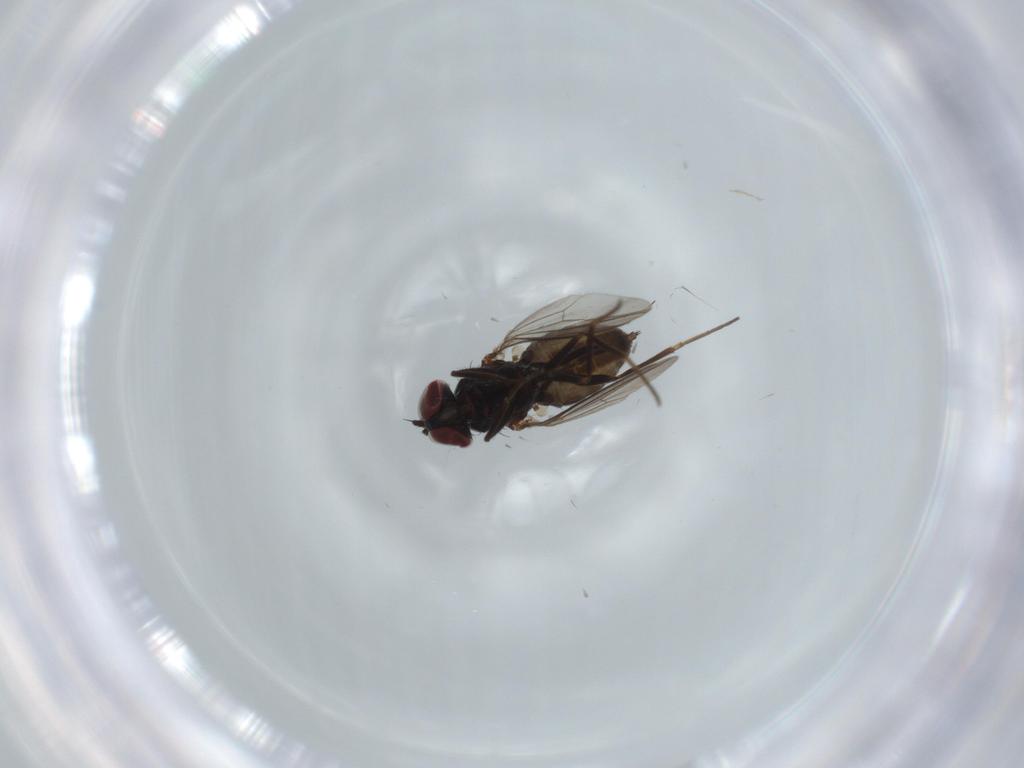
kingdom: Animalia
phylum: Arthropoda
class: Insecta
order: Diptera
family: Dolichopodidae
